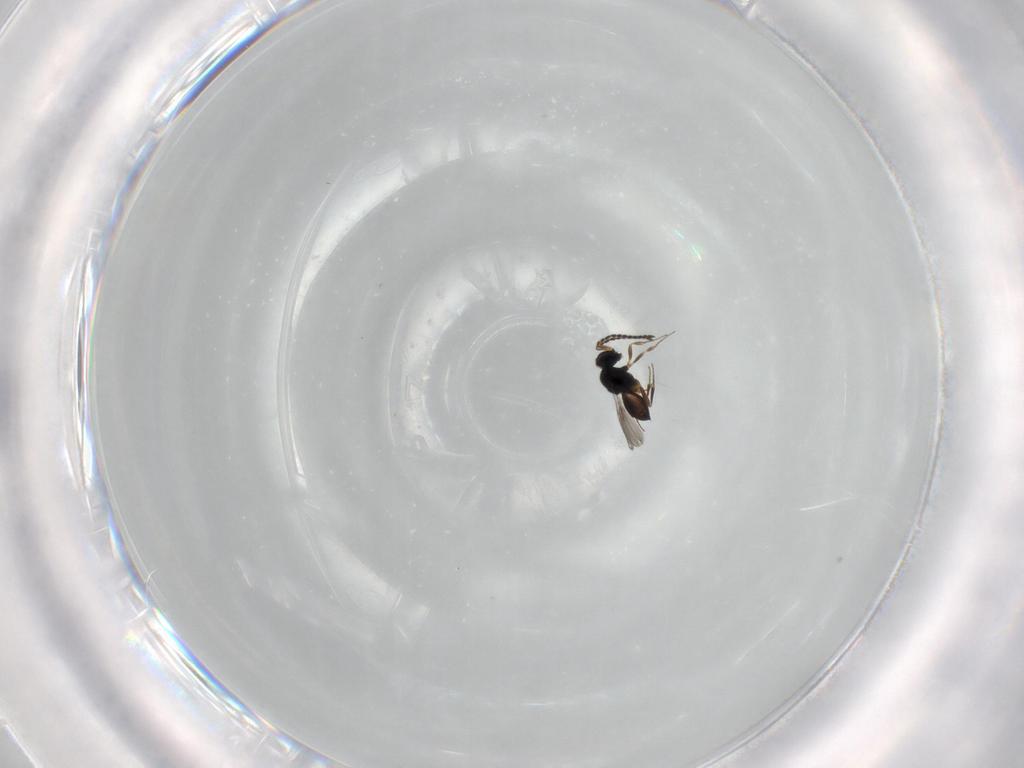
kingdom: Animalia
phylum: Arthropoda
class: Insecta
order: Hymenoptera
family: Scelionidae
